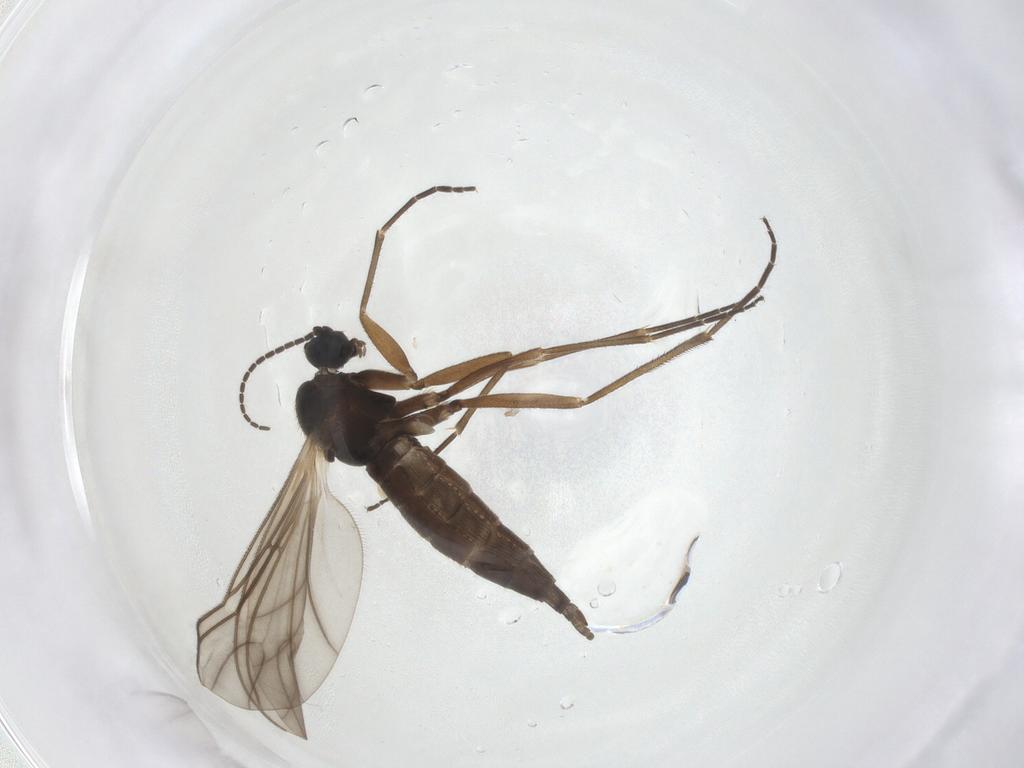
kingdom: Animalia
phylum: Arthropoda
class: Insecta
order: Diptera
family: Sciaridae
